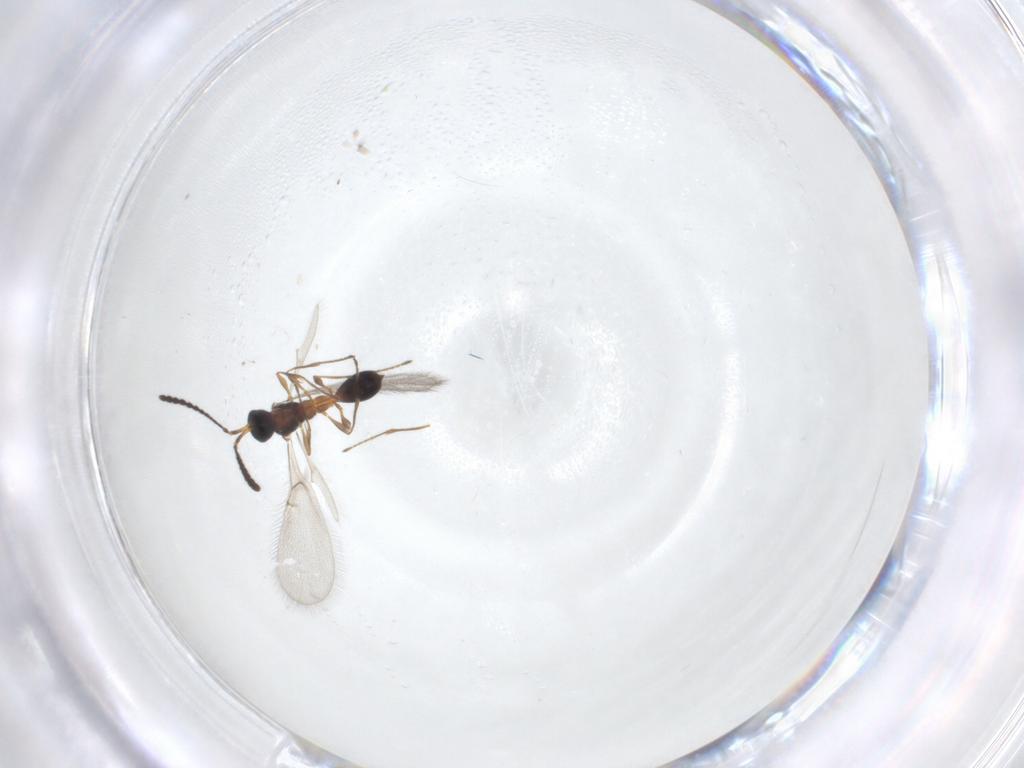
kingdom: Animalia
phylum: Arthropoda
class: Insecta
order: Hymenoptera
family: Diapriidae
